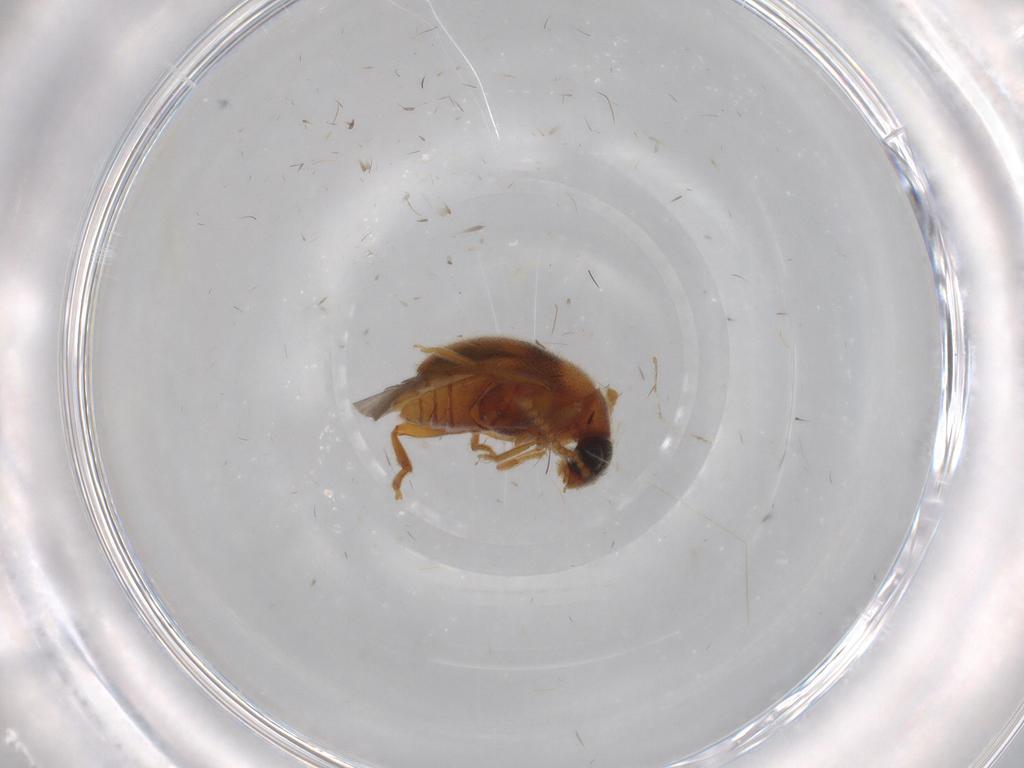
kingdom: Animalia
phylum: Arthropoda
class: Insecta
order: Coleoptera
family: Aderidae
